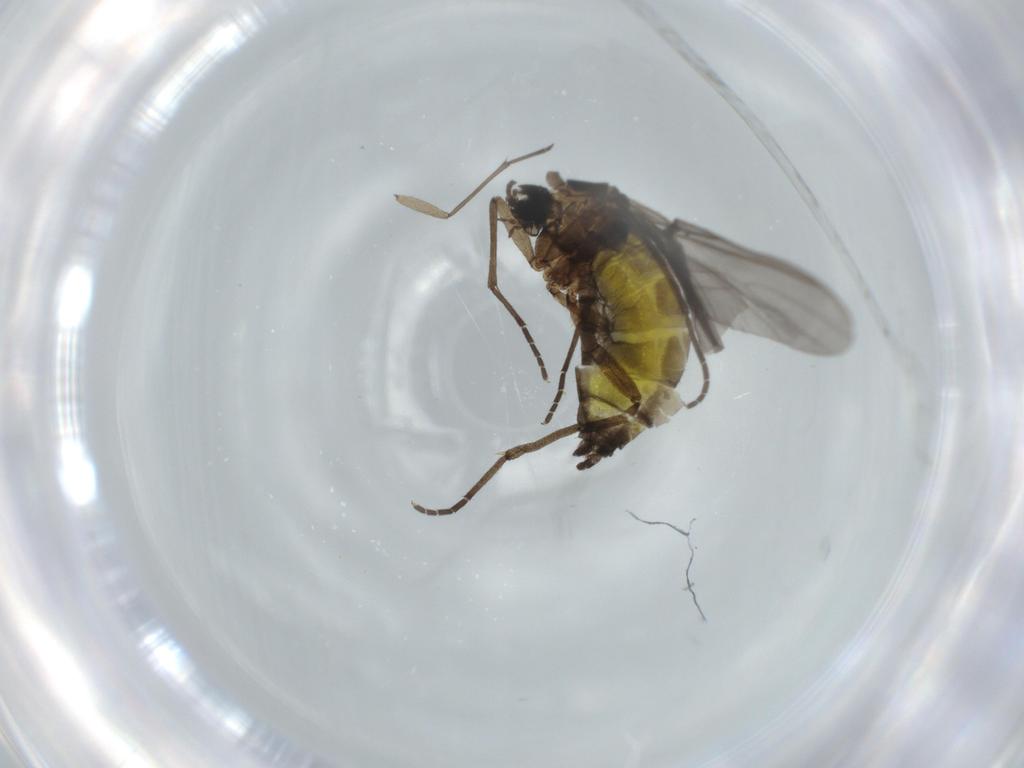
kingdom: Animalia
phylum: Arthropoda
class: Insecta
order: Diptera
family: Sciaridae
